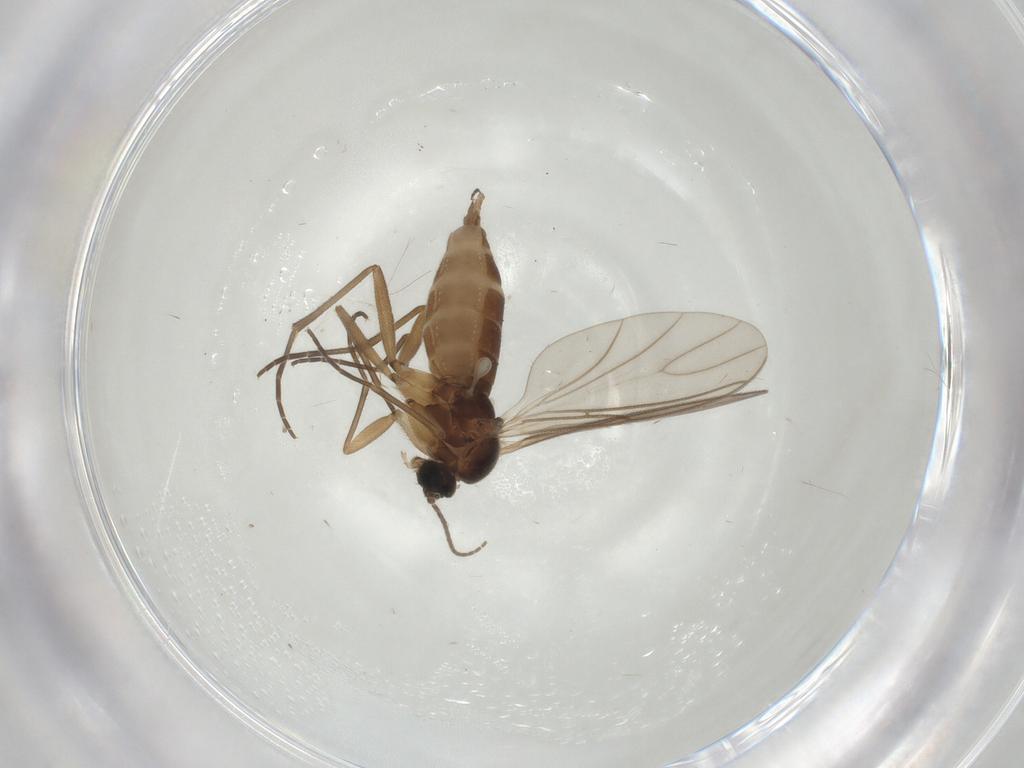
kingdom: Animalia
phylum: Arthropoda
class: Insecta
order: Diptera
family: Sciaridae
